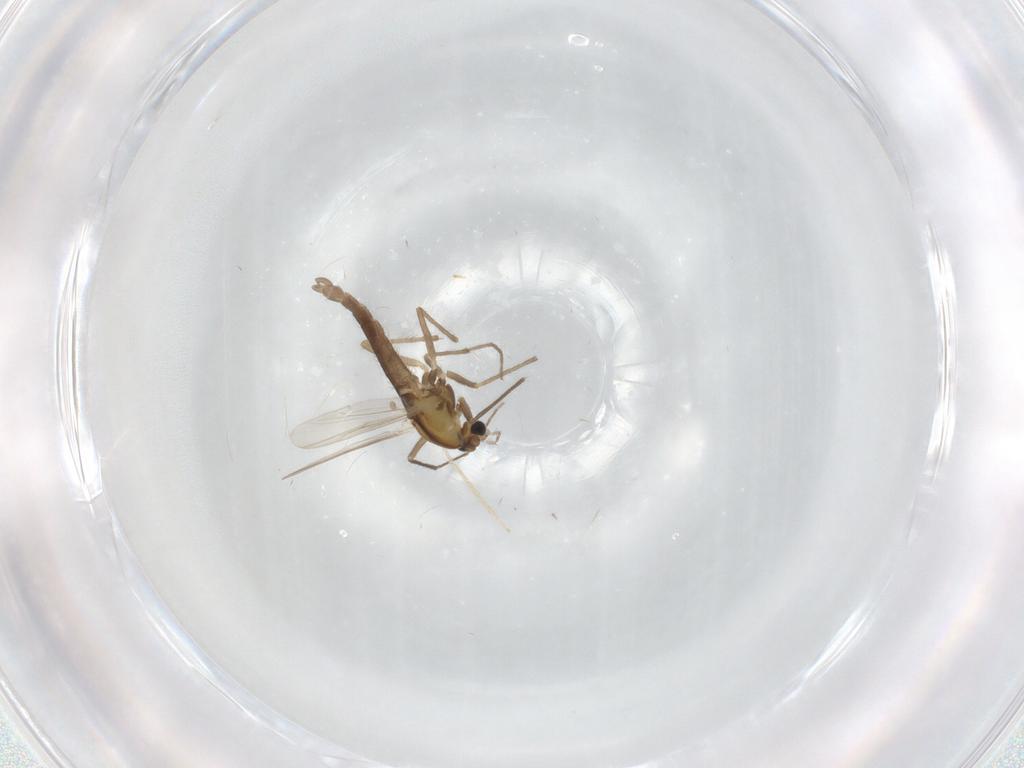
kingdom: Animalia
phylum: Arthropoda
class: Insecta
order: Diptera
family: Chironomidae
